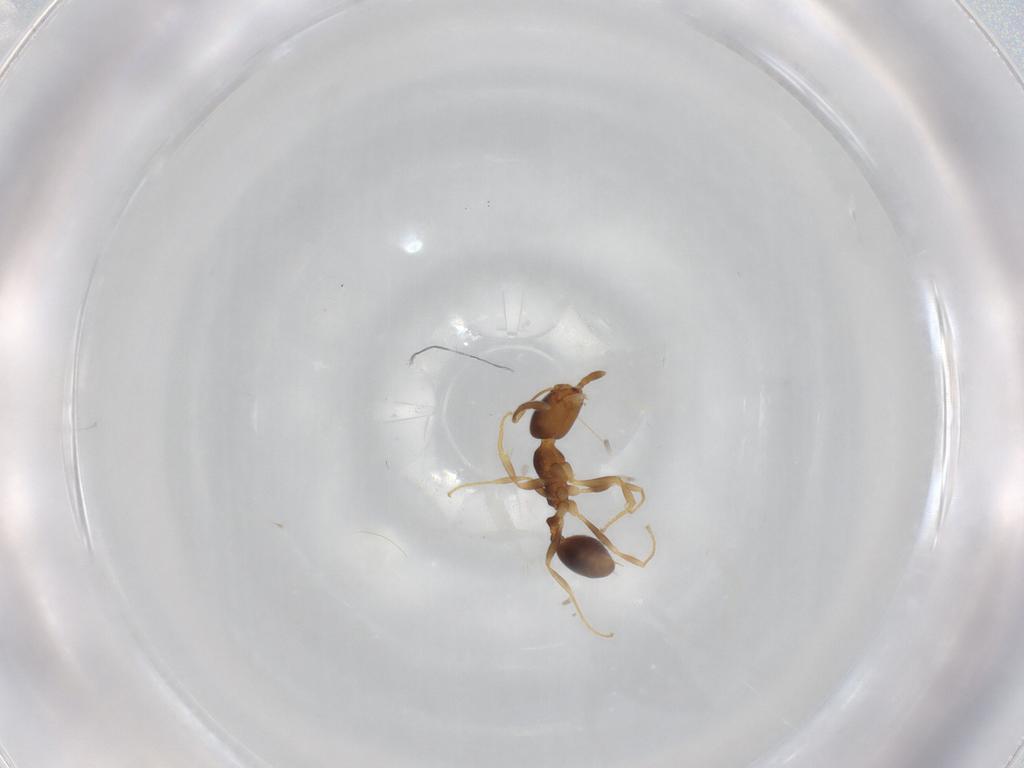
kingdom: Animalia
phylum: Arthropoda
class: Insecta
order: Hymenoptera
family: Formicidae
